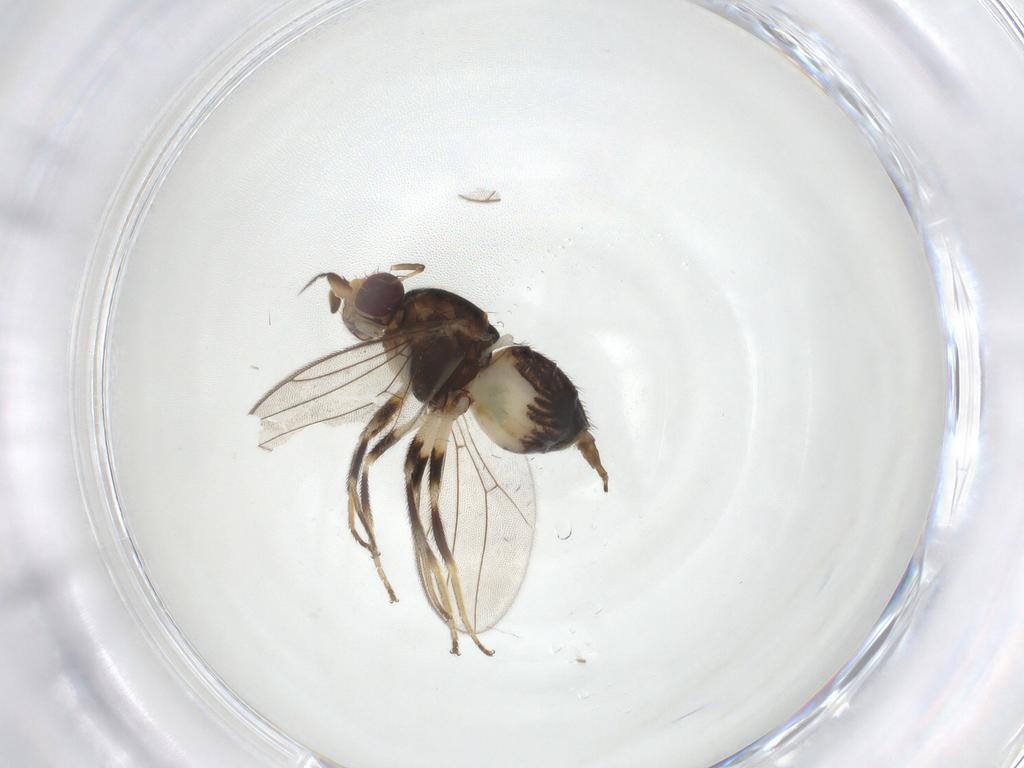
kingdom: Animalia
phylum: Arthropoda
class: Insecta
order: Diptera
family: Chloropidae
